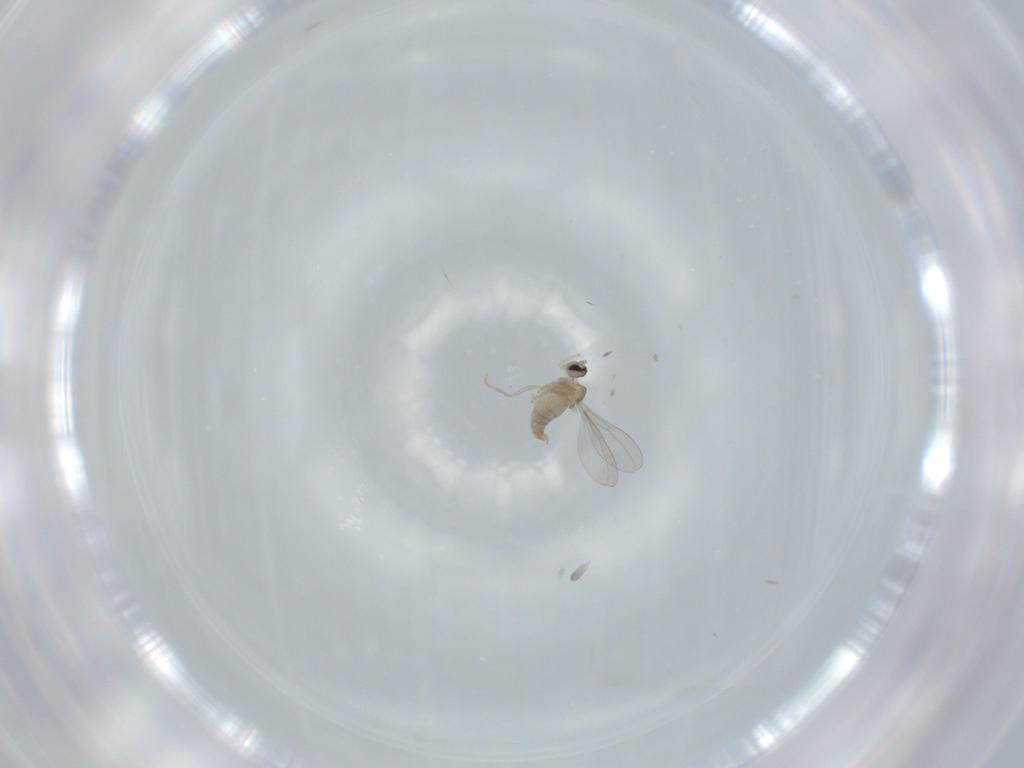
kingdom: Animalia
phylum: Arthropoda
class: Insecta
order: Diptera
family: Cecidomyiidae
